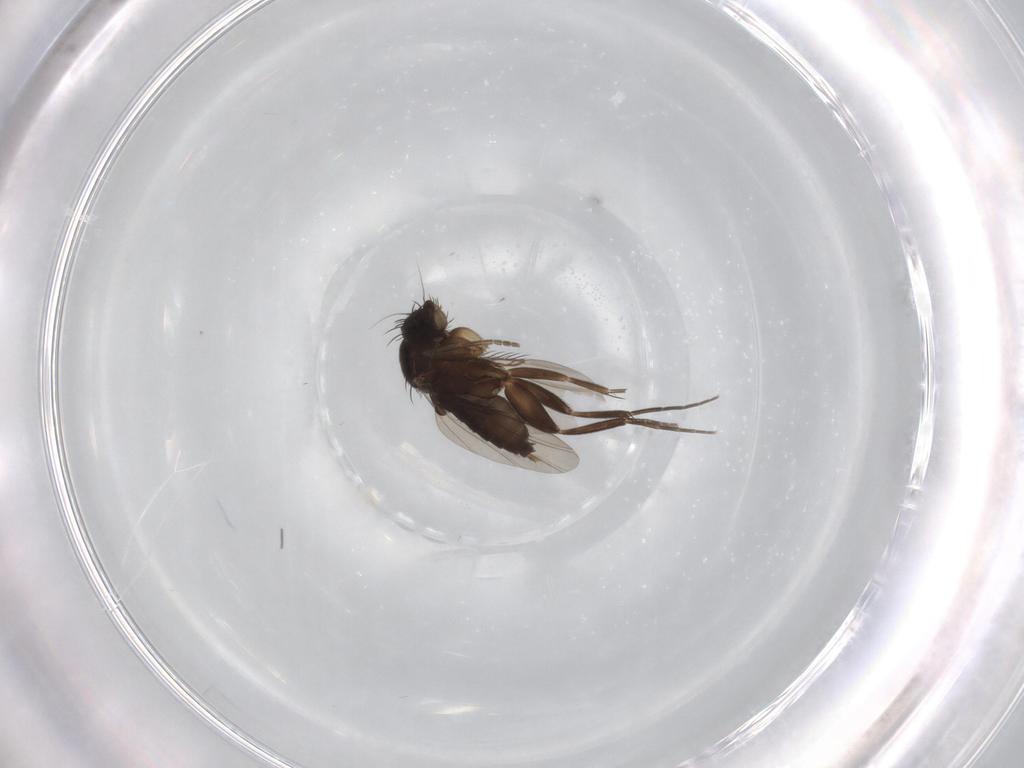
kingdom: Animalia
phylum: Arthropoda
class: Insecta
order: Diptera
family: Phoridae
